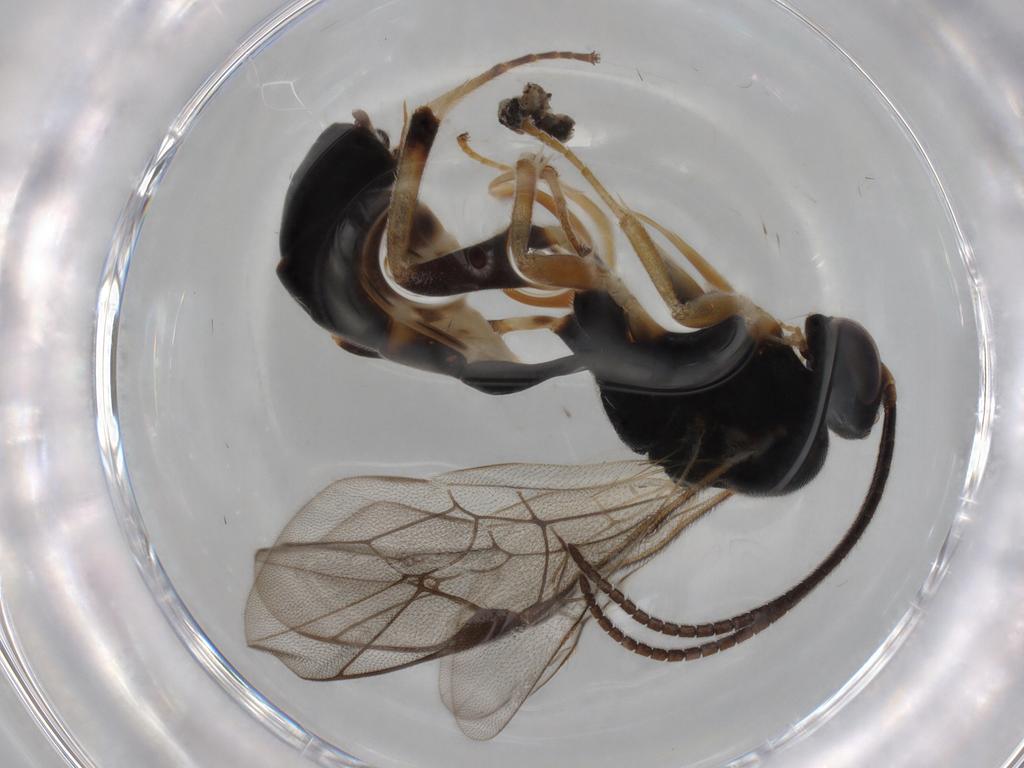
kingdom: Animalia
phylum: Arthropoda
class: Insecta
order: Hymenoptera
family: Ichneumonidae
